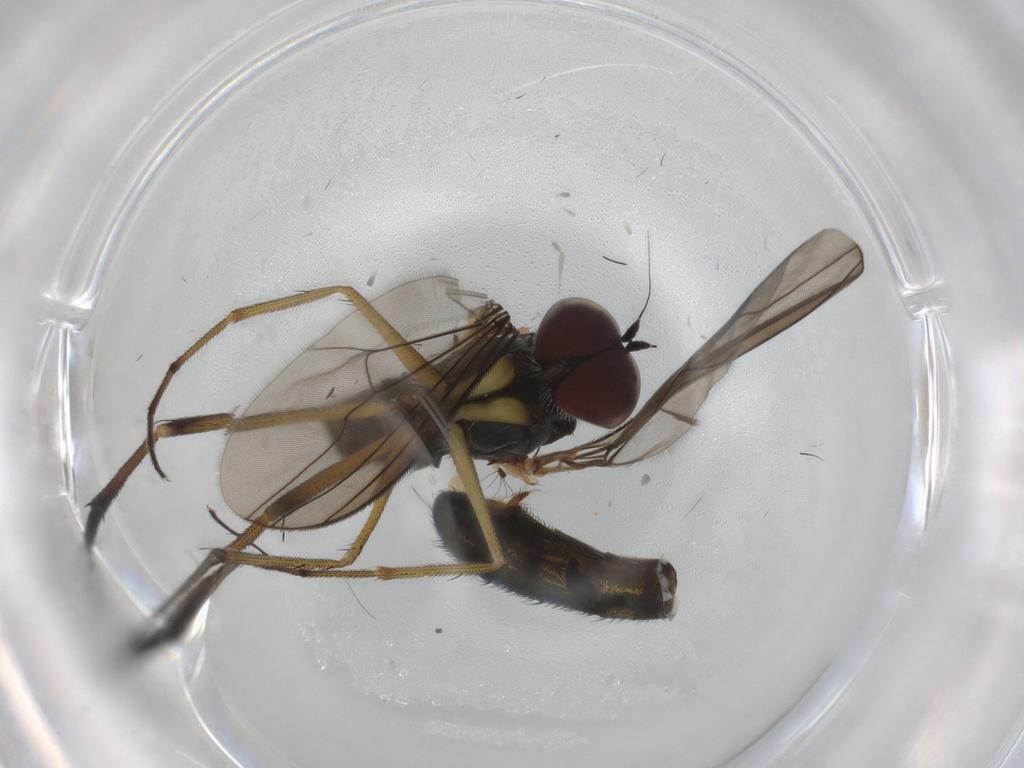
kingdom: Animalia
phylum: Arthropoda
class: Insecta
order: Diptera
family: Dolichopodidae
